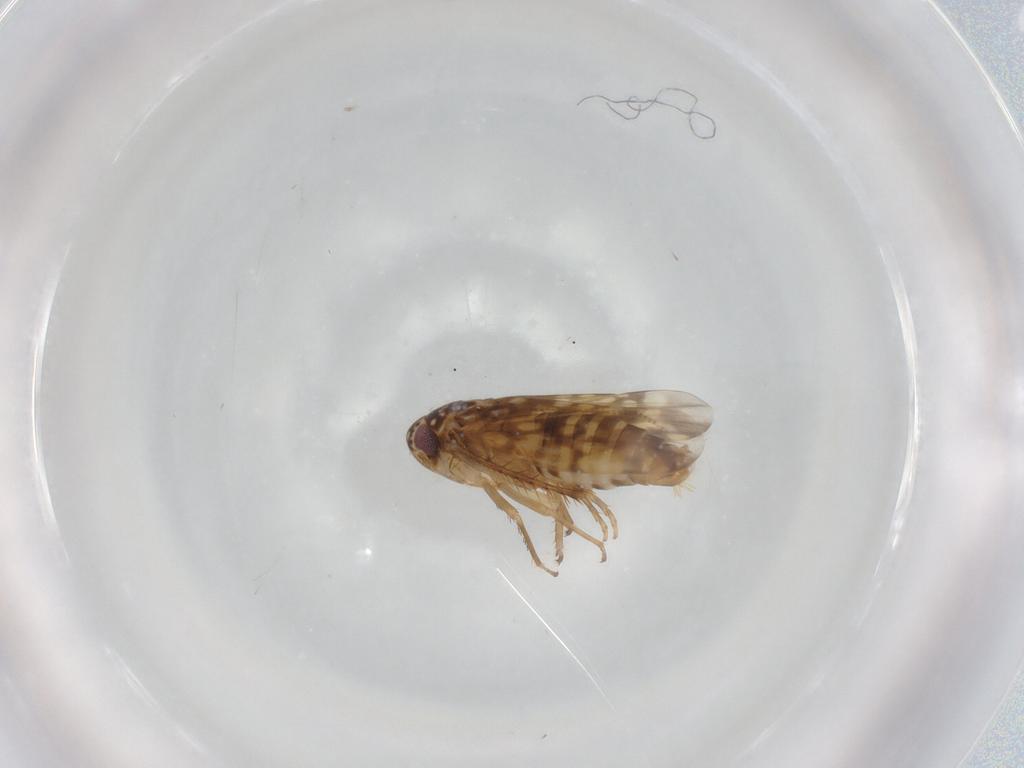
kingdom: Animalia
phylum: Arthropoda
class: Insecta
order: Hemiptera
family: Cicadellidae
